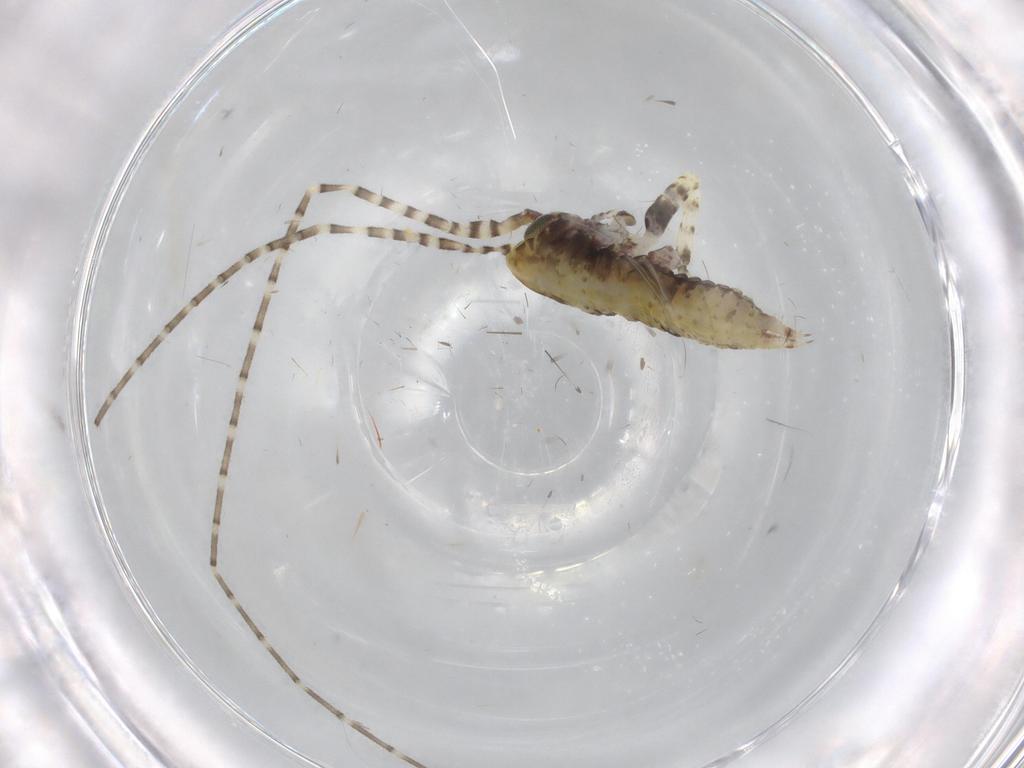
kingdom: Animalia
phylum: Arthropoda
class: Insecta
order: Orthoptera
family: Gryllidae
